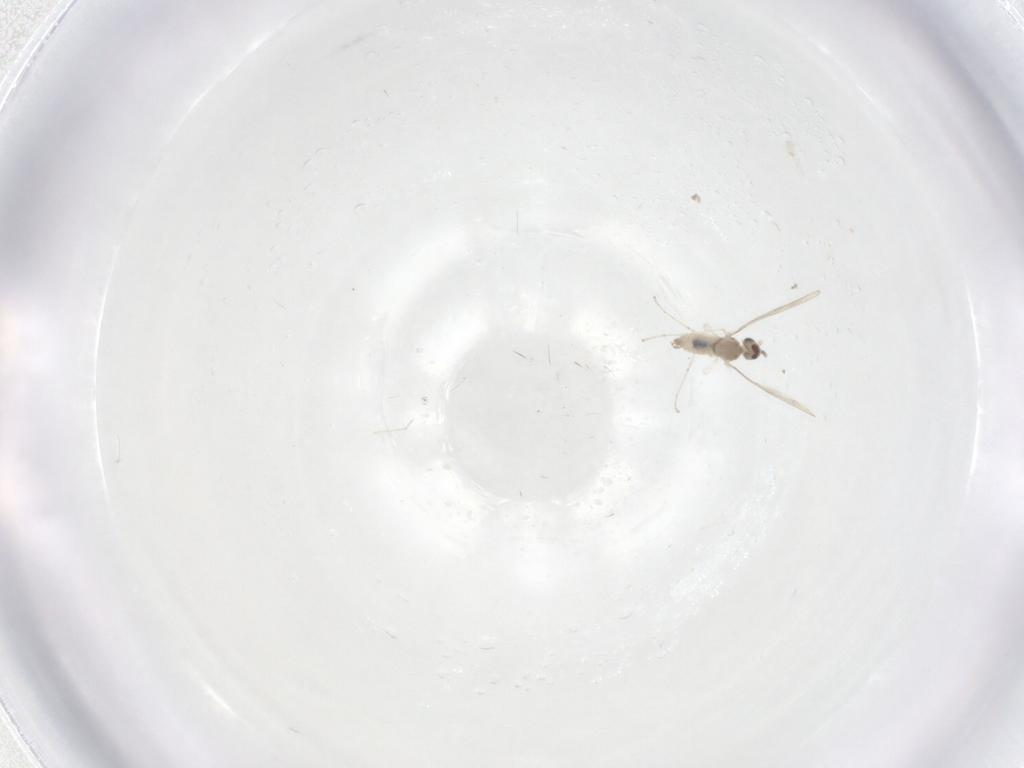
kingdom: Animalia
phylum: Arthropoda
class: Insecta
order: Diptera
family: Cecidomyiidae
